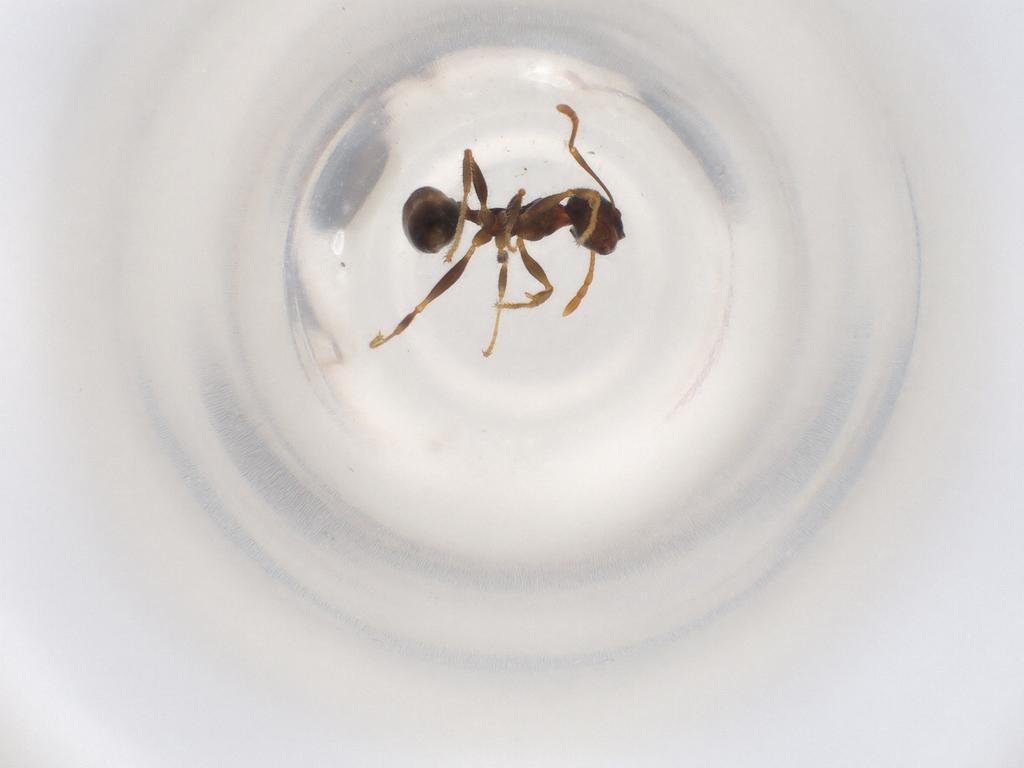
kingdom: Animalia
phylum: Arthropoda
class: Insecta
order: Hymenoptera
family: Formicidae
